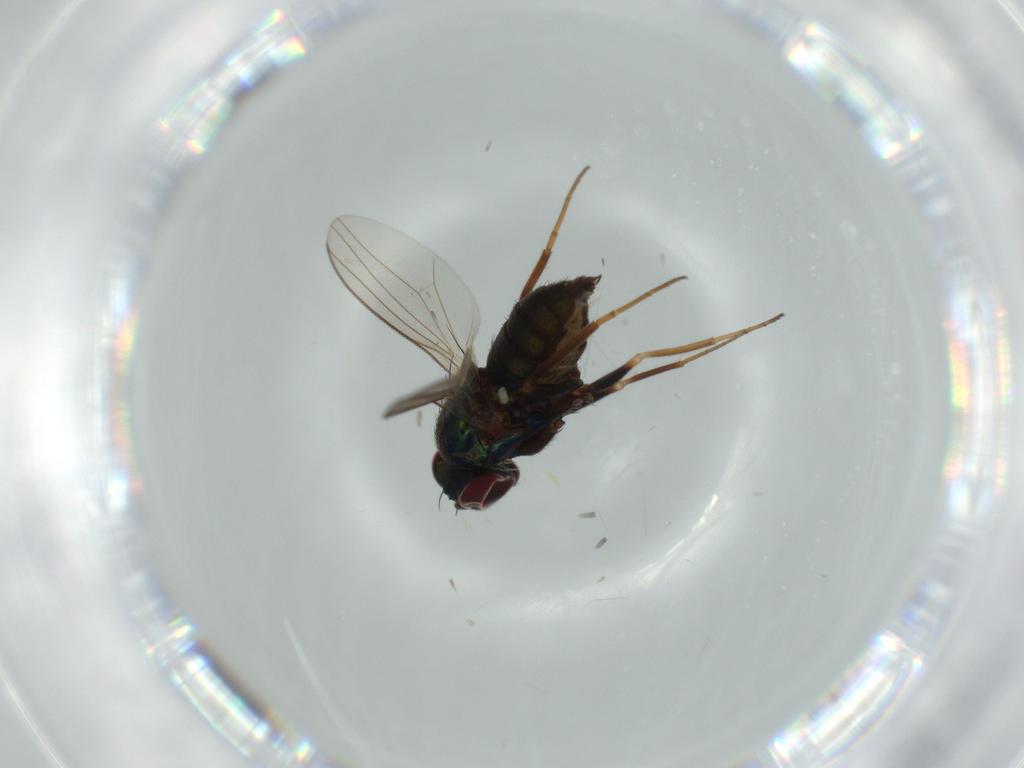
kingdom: Animalia
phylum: Arthropoda
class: Insecta
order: Diptera
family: Dolichopodidae
